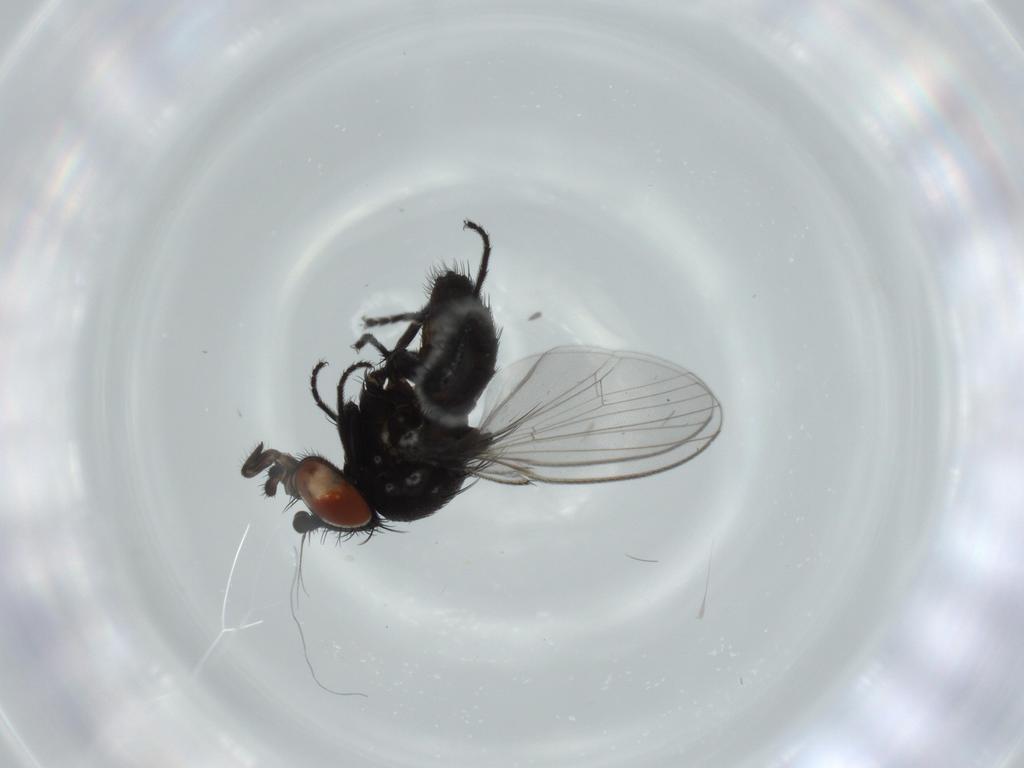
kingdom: Animalia
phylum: Arthropoda
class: Insecta
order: Diptera
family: Milichiidae
